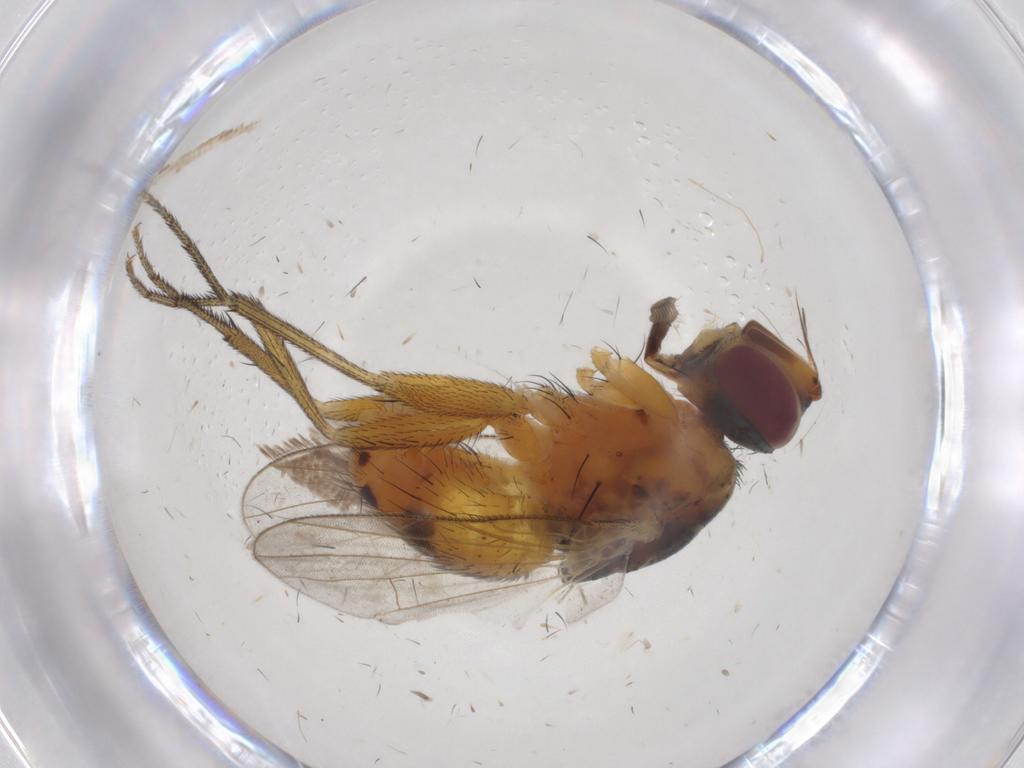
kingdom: Animalia
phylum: Arthropoda
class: Insecta
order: Diptera
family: Muscidae
